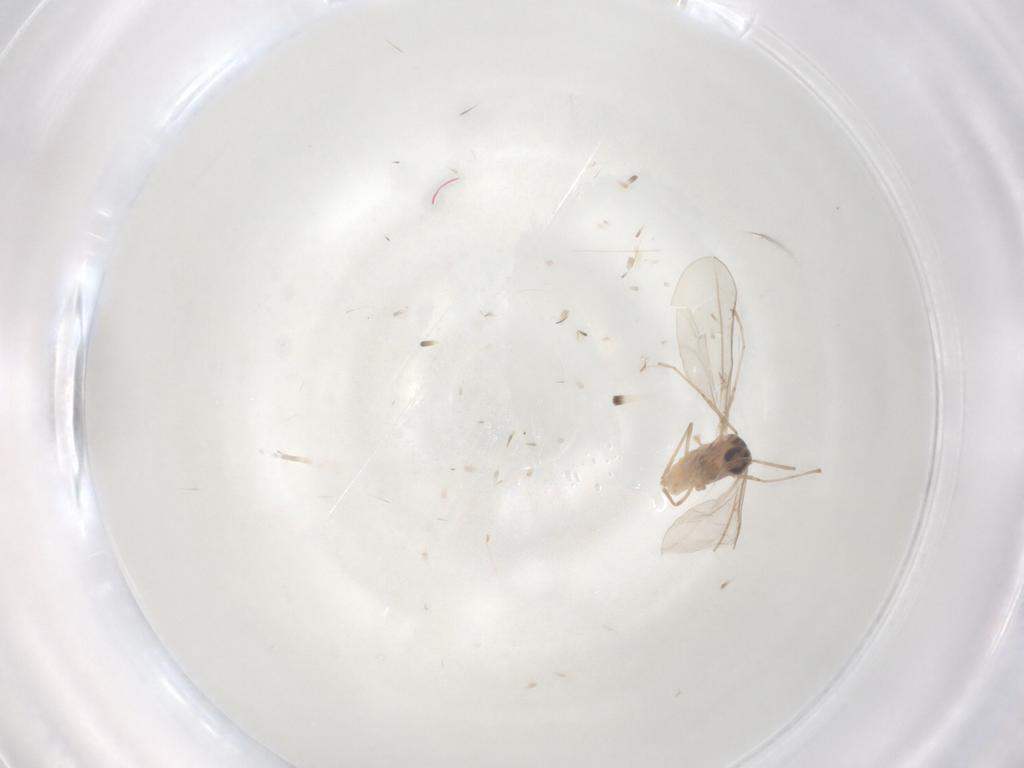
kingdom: Animalia
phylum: Arthropoda
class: Insecta
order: Diptera
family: Cecidomyiidae
